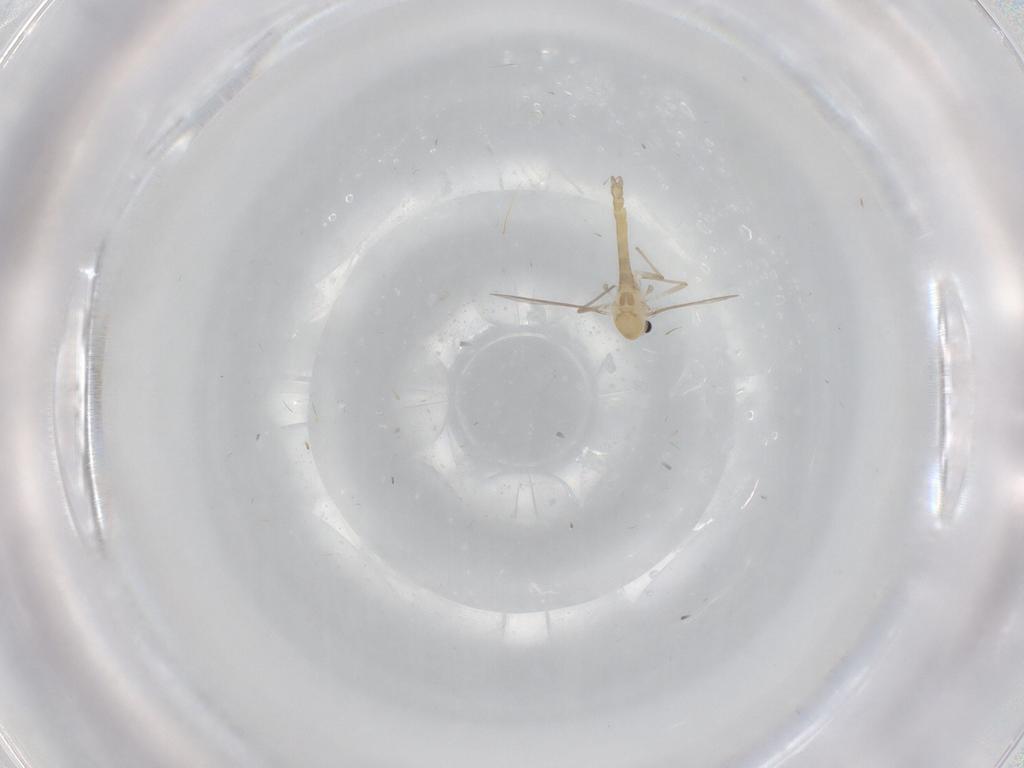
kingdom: Animalia
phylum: Arthropoda
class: Insecta
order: Diptera
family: Chironomidae
